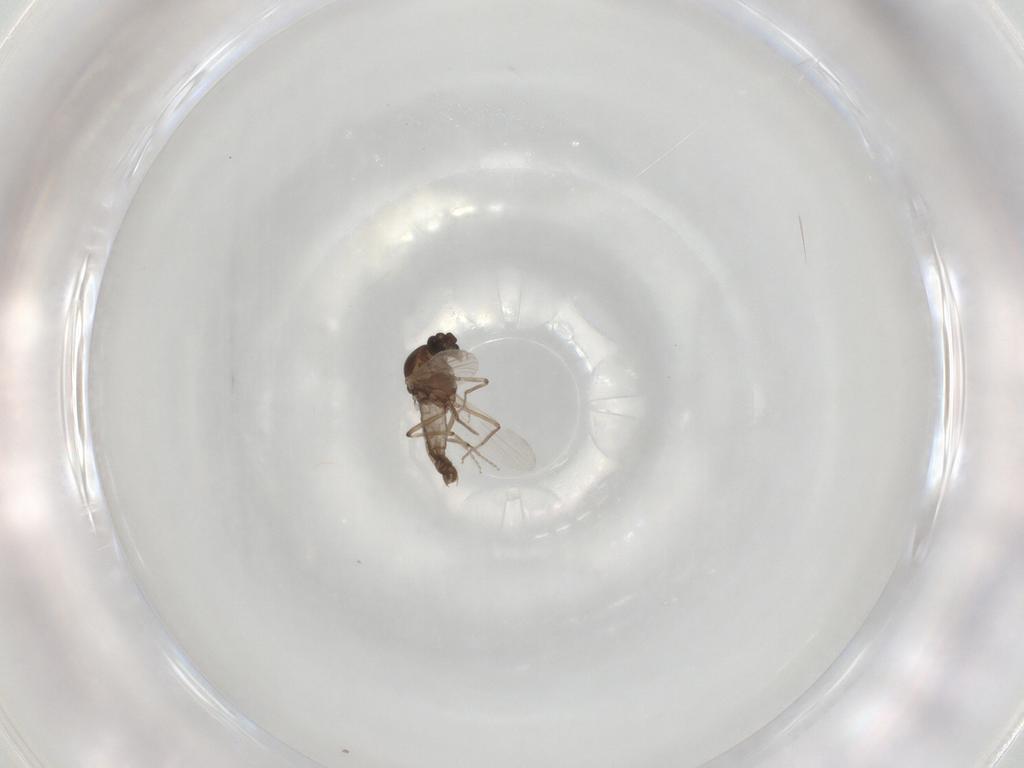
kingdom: Animalia
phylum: Arthropoda
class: Insecta
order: Diptera
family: Ceratopogonidae
